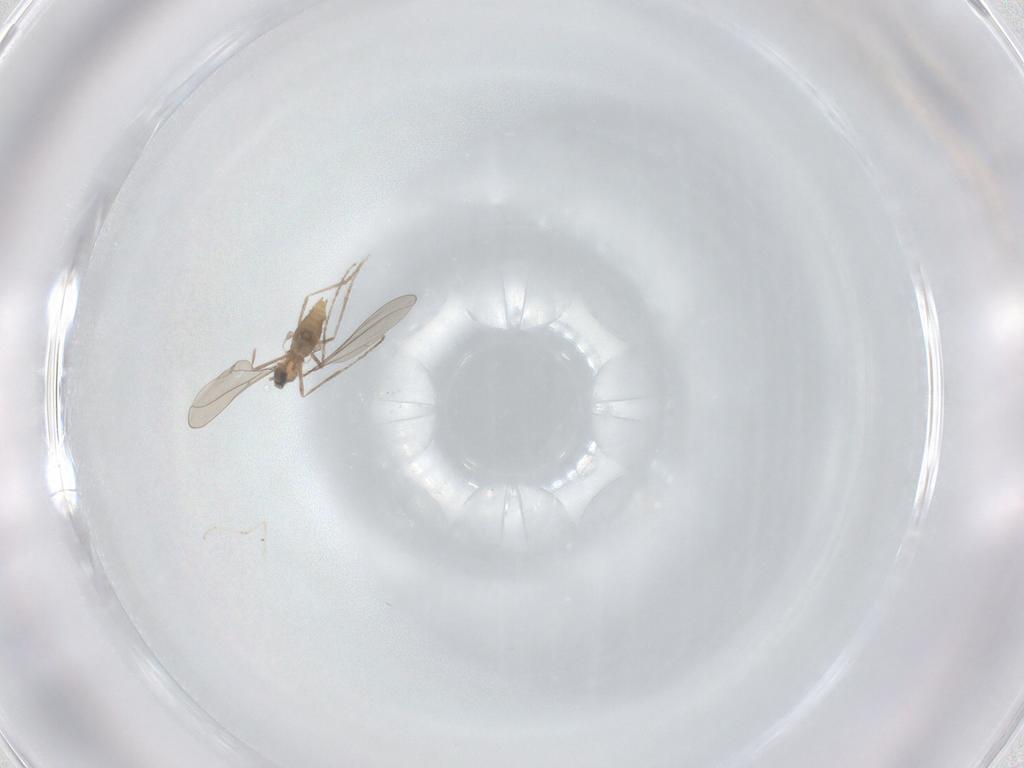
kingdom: Animalia
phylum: Arthropoda
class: Insecta
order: Diptera
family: Cecidomyiidae
